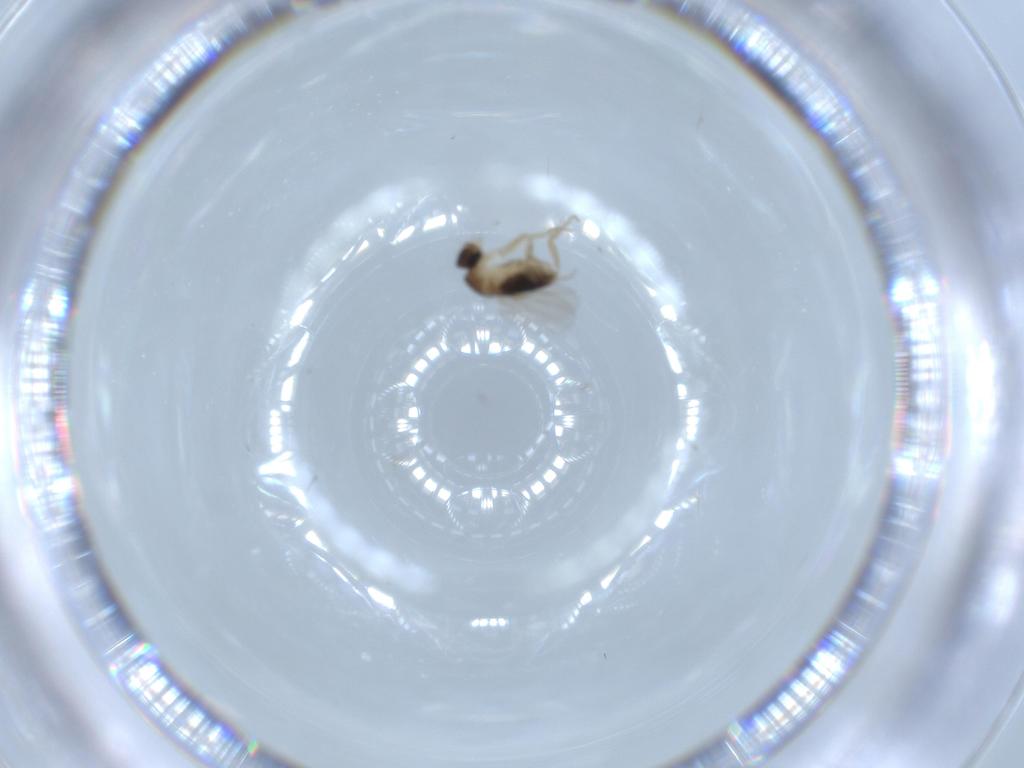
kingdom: Animalia
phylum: Arthropoda
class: Insecta
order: Diptera
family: Phoridae
